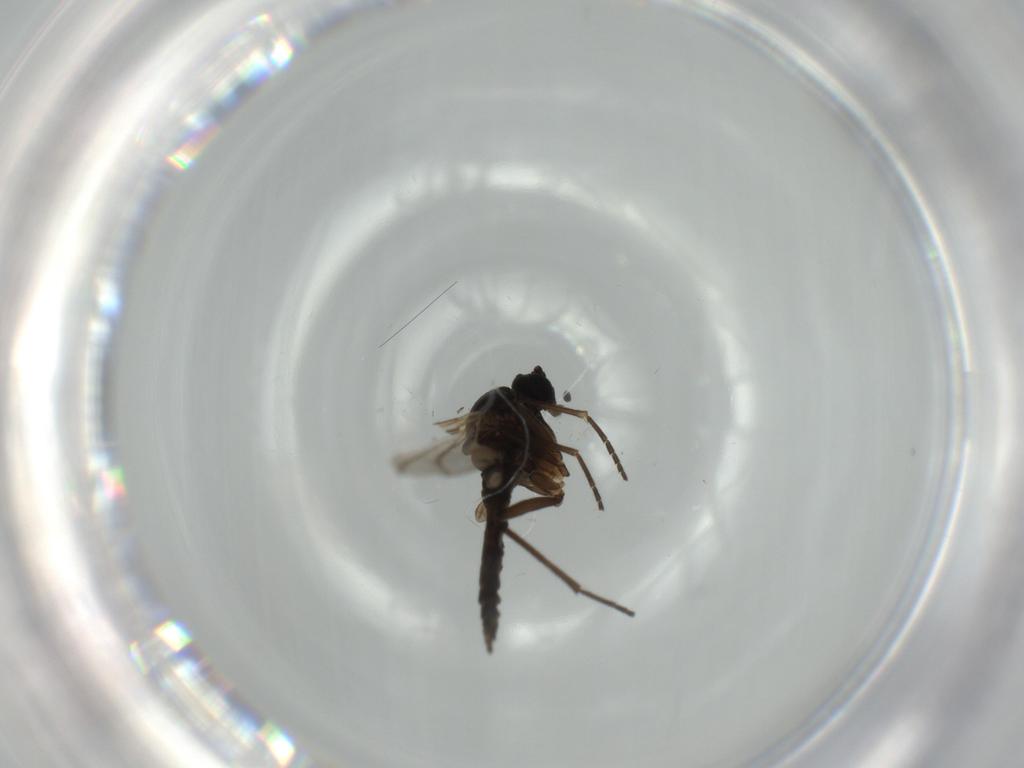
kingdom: Animalia
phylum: Arthropoda
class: Insecta
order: Diptera
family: Sciaridae
